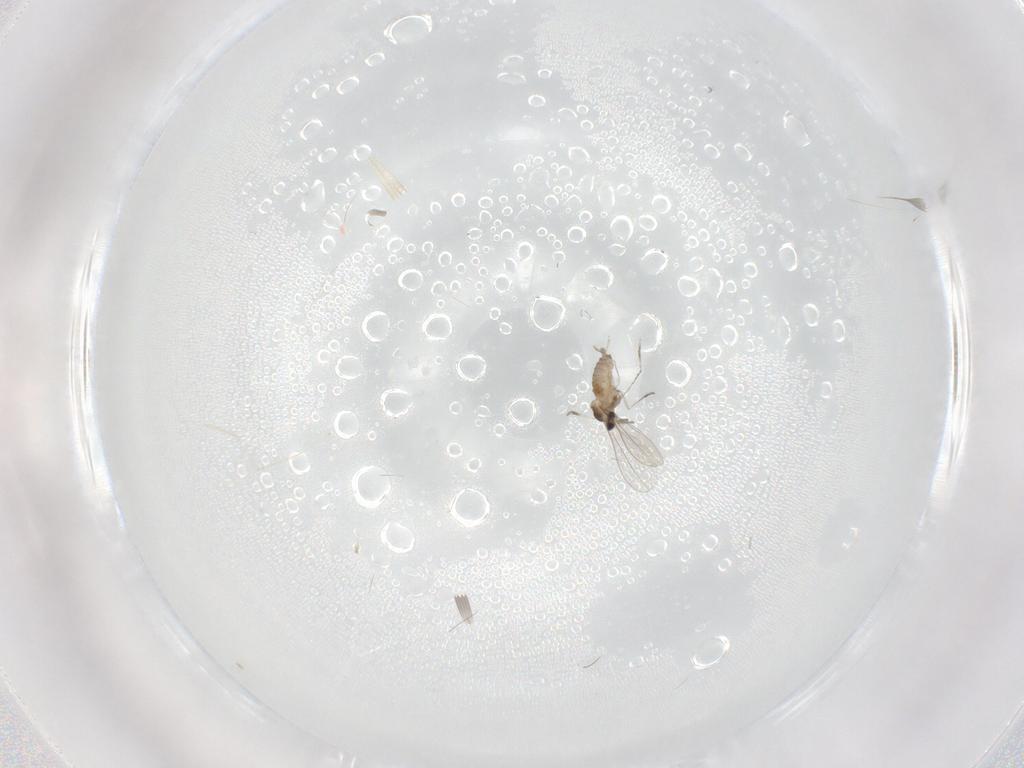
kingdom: Animalia
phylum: Arthropoda
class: Insecta
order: Diptera
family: Cecidomyiidae
